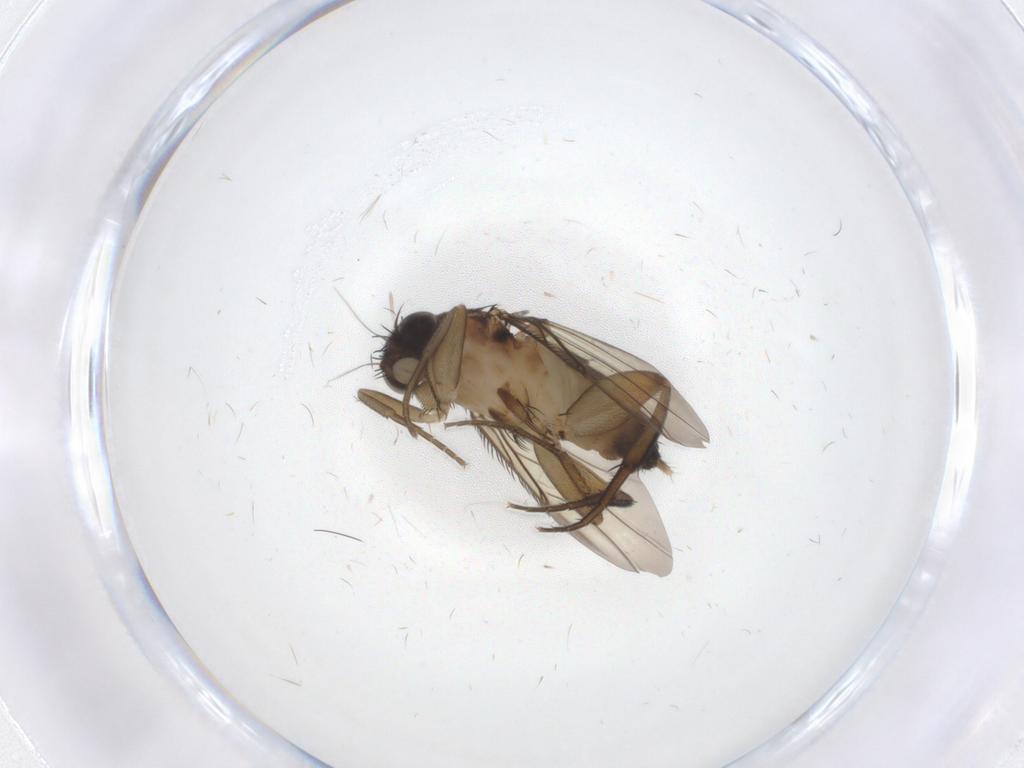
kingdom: Animalia
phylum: Arthropoda
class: Insecta
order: Diptera
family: Phoridae
